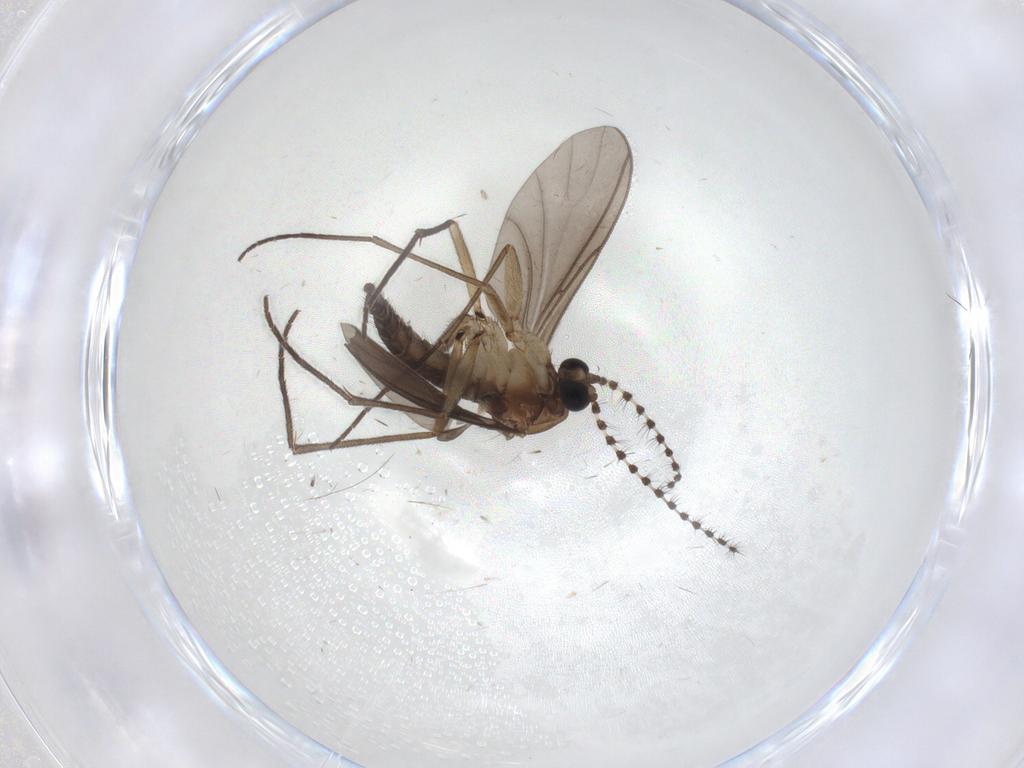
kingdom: Animalia
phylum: Arthropoda
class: Insecta
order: Diptera
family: Sciaridae
